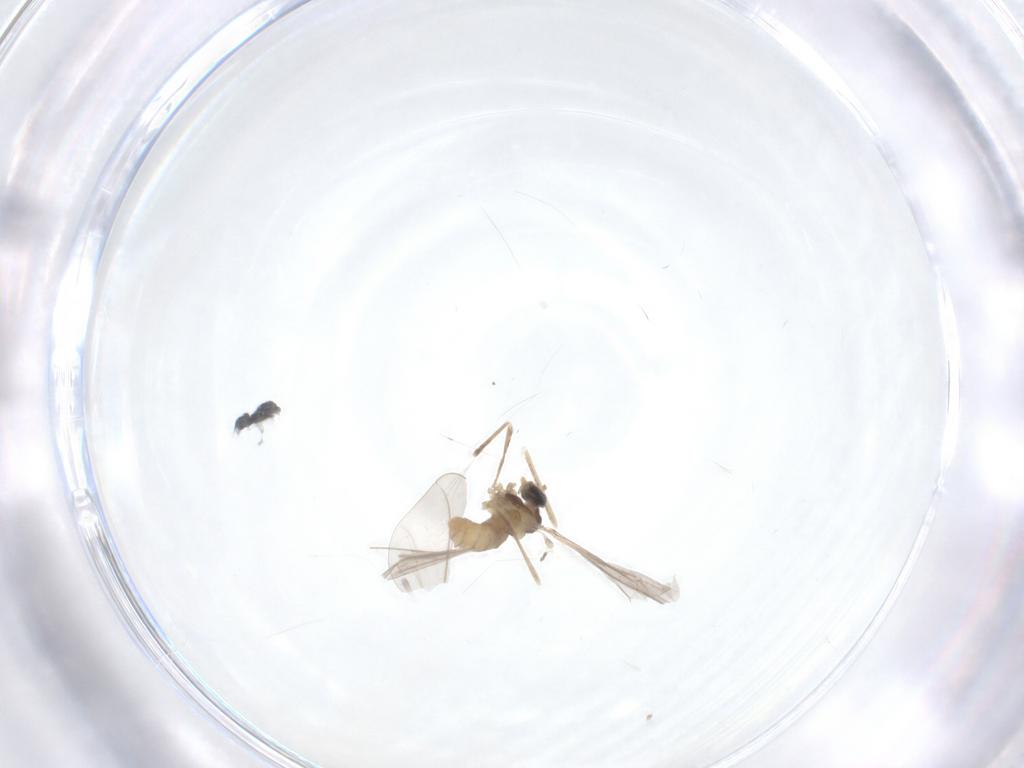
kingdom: Animalia
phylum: Arthropoda
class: Insecta
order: Diptera
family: Cecidomyiidae
